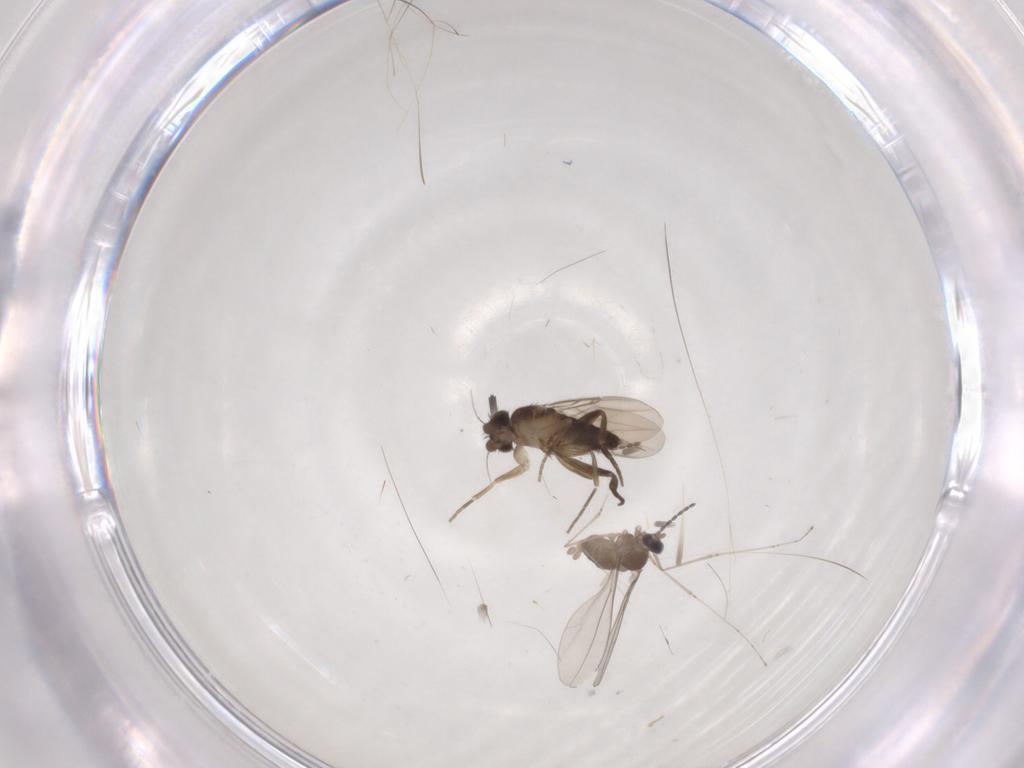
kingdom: Animalia
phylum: Arthropoda
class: Insecta
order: Diptera
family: Phoridae
